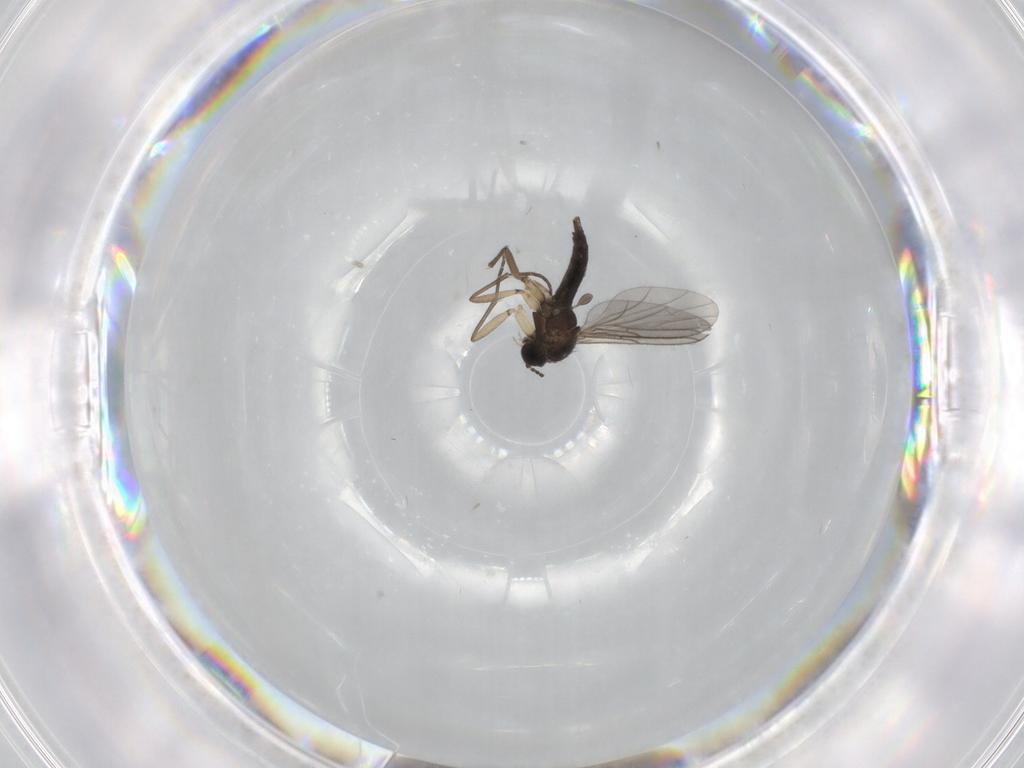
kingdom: Animalia
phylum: Arthropoda
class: Insecta
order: Diptera
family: Sciaridae
